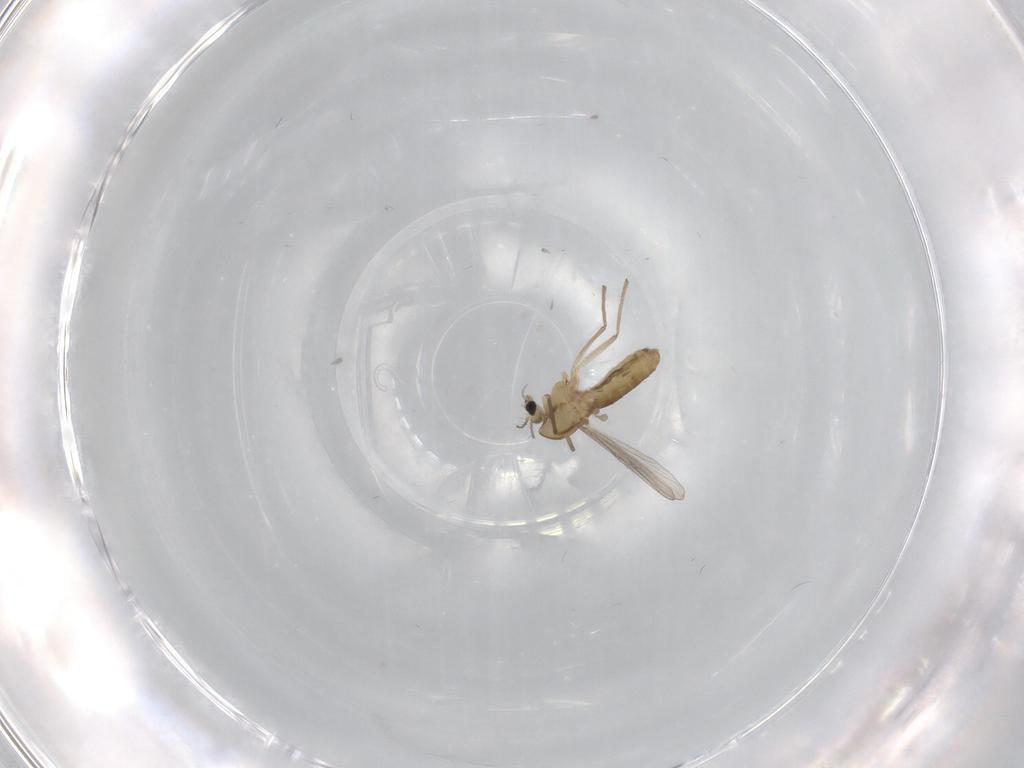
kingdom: Animalia
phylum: Arthropoda
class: Insecta
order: Diptera
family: Chironomidae
